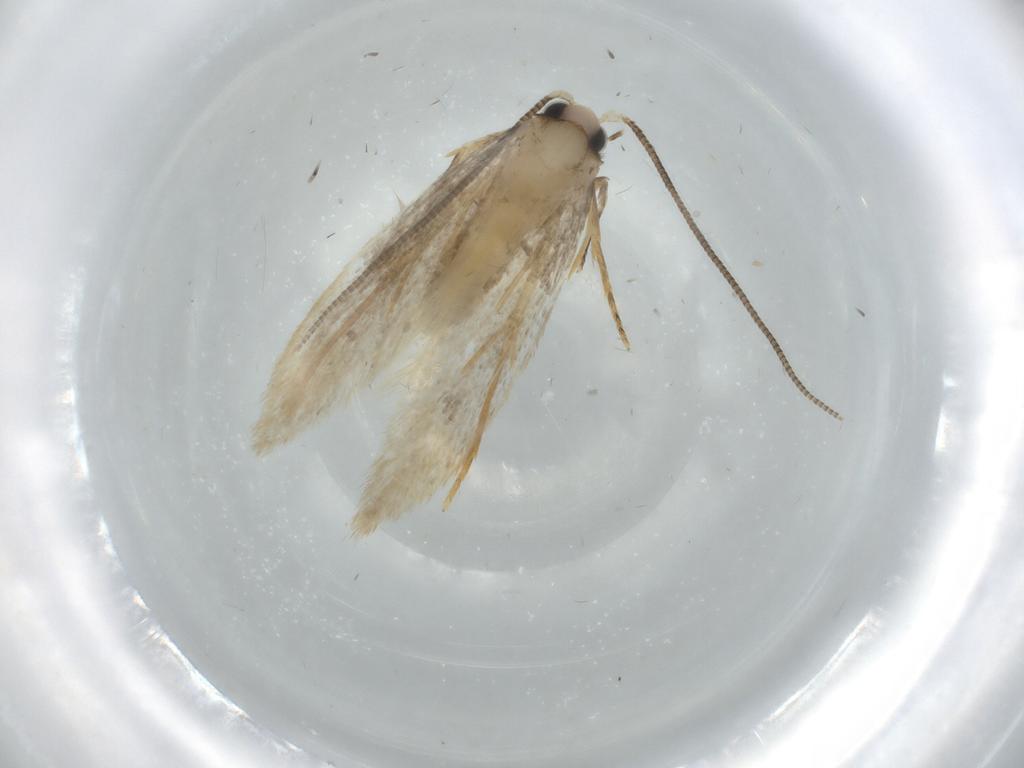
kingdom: Animalia
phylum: Arthropoda
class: Insecta
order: Lepidoptera
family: Tineidae
